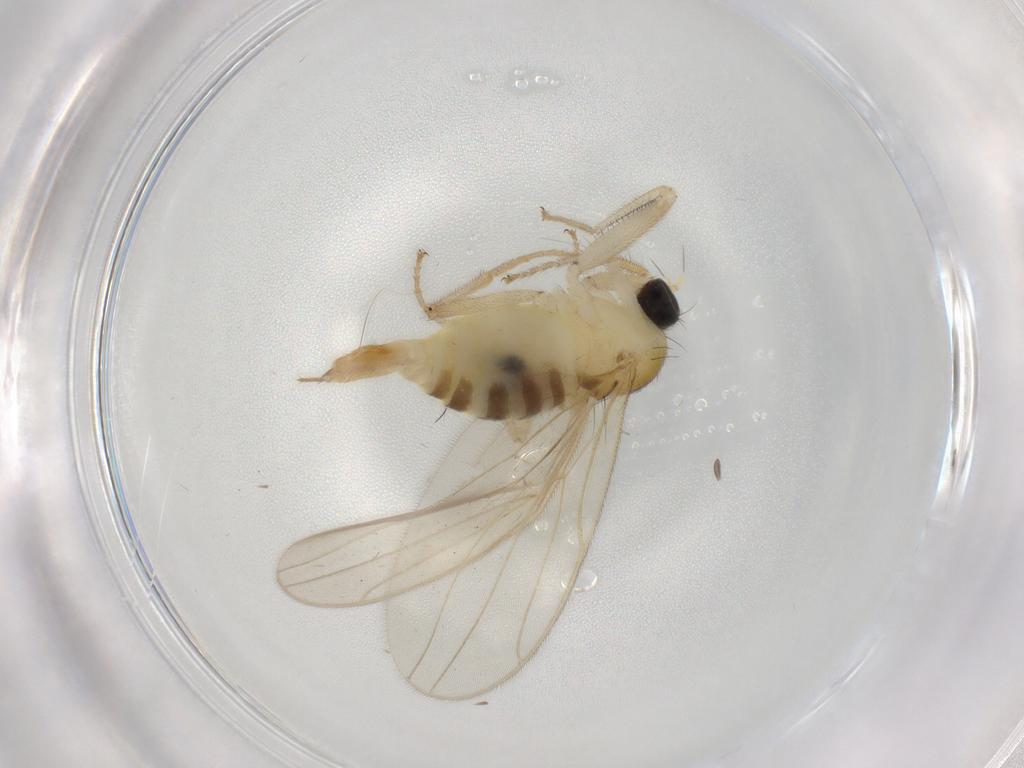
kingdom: Animalia
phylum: Arthropoda
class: Insecta
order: Diptera
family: Hybotidae
